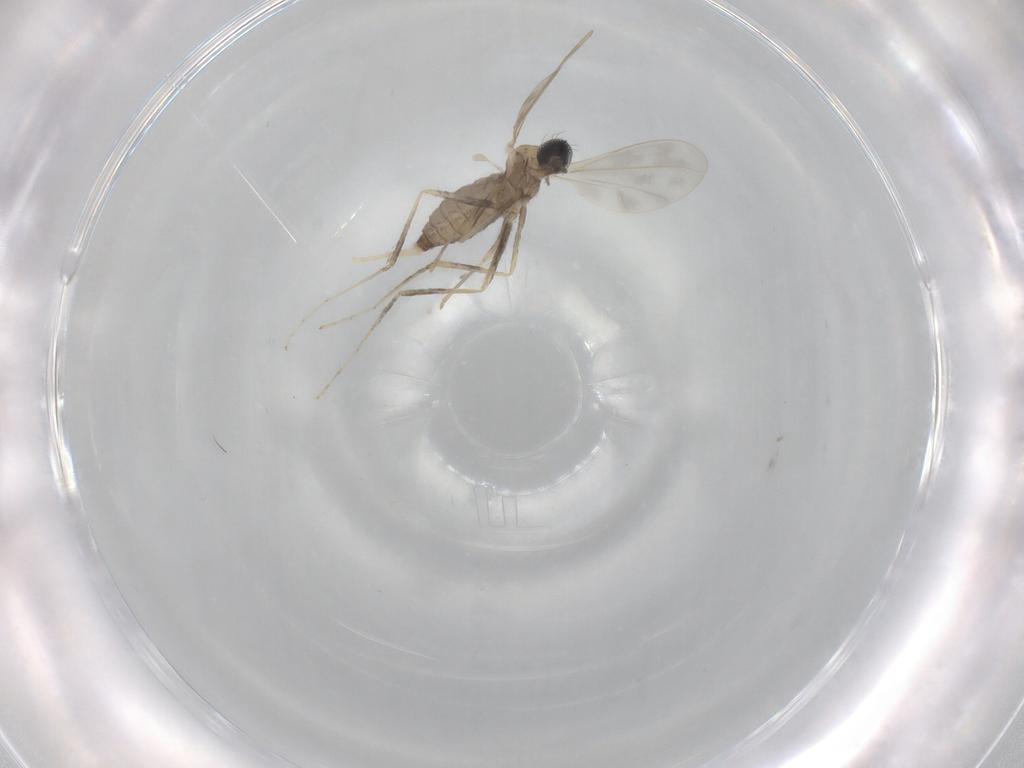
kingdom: Animalia
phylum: Arthropoda
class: Insecta
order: Diptera
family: Cecidomyiidae
